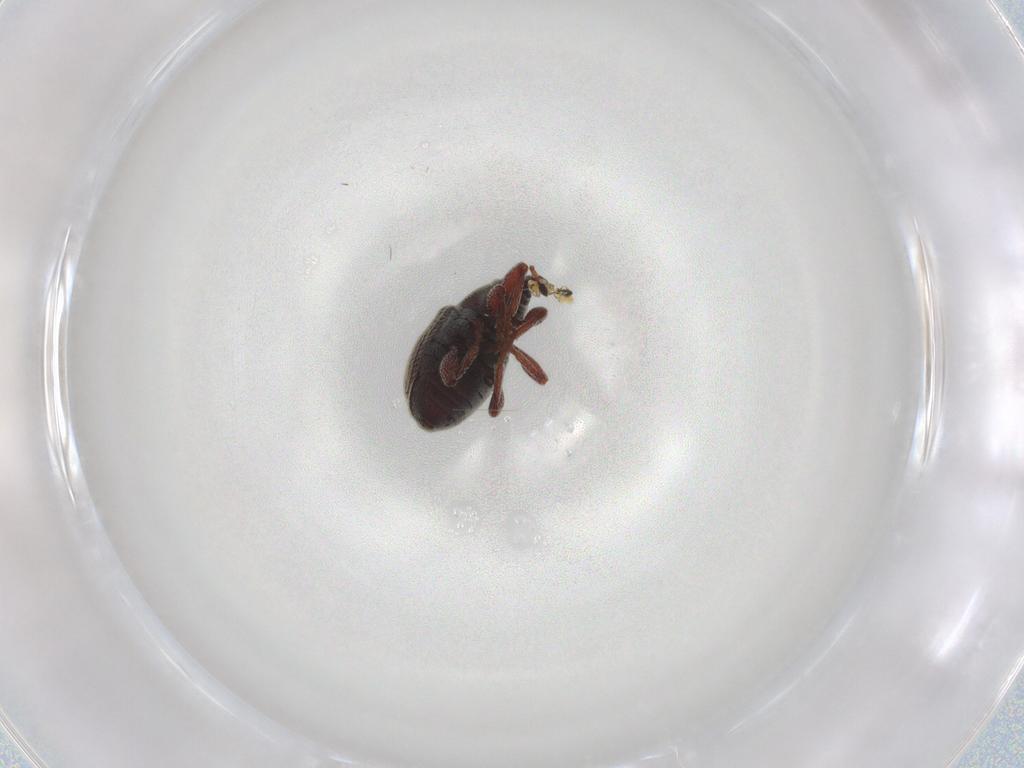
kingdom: Animalia
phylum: Arthropoda
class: Insecta
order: Coleoptera
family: Curculionidae
